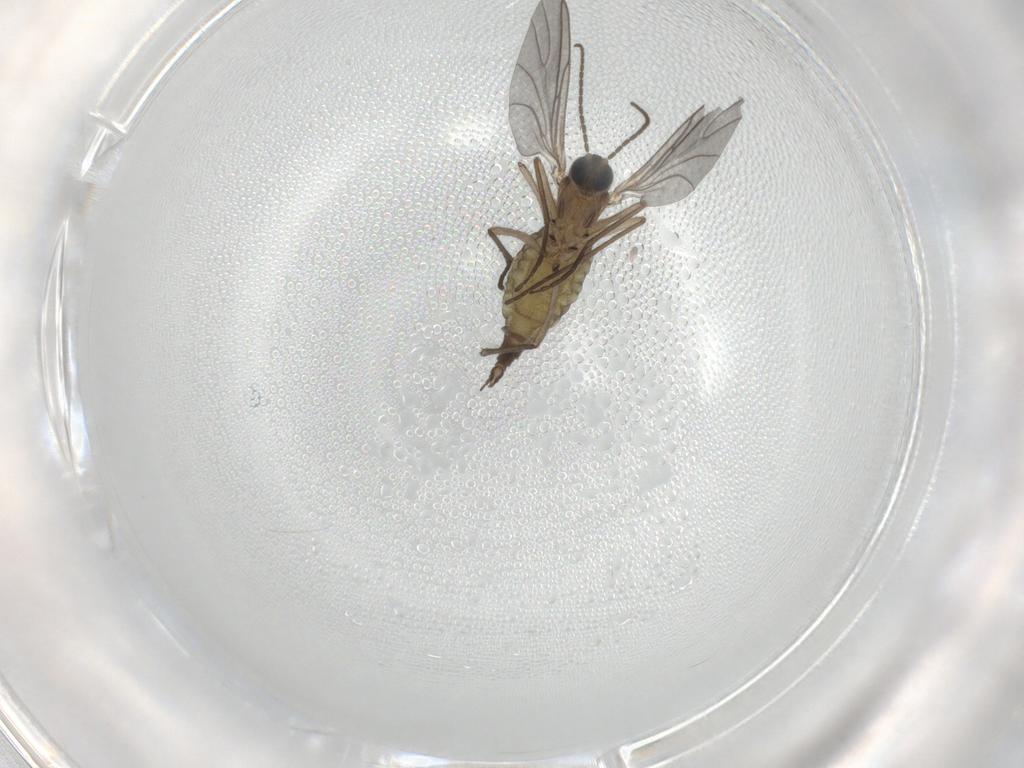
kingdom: Animalia
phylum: Arthropoda
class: Insecta
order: Diptera
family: Sciaridae
